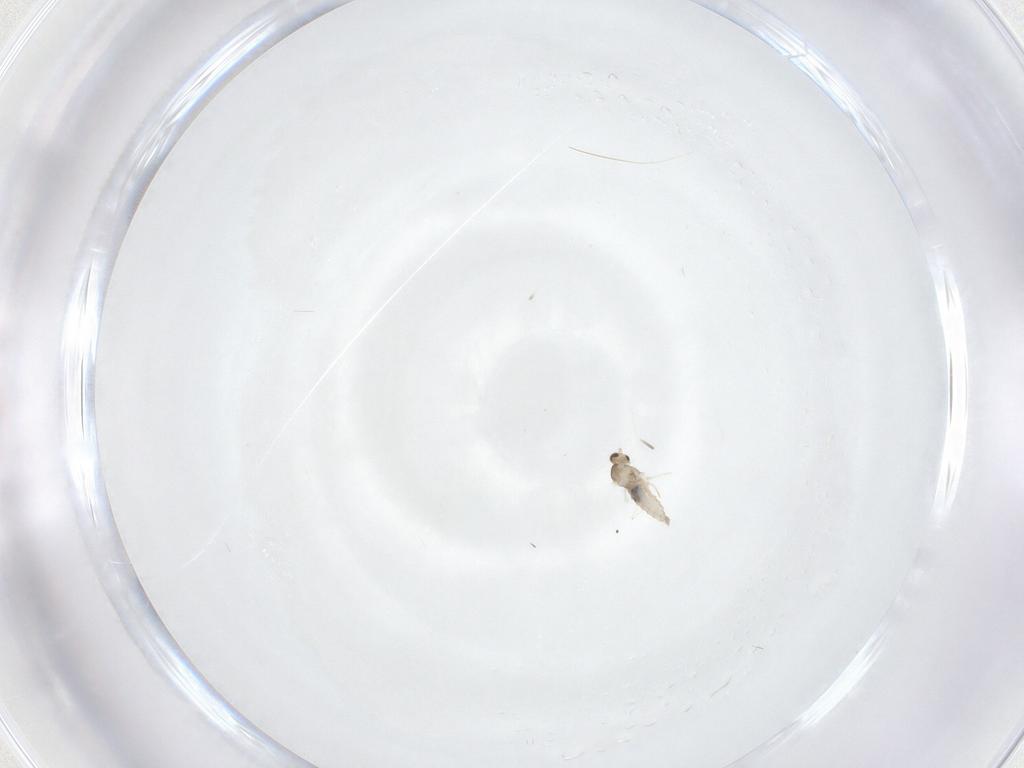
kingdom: Animalia
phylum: Arthropoda
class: Insecta
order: Diptera
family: Cecidomyiidae
